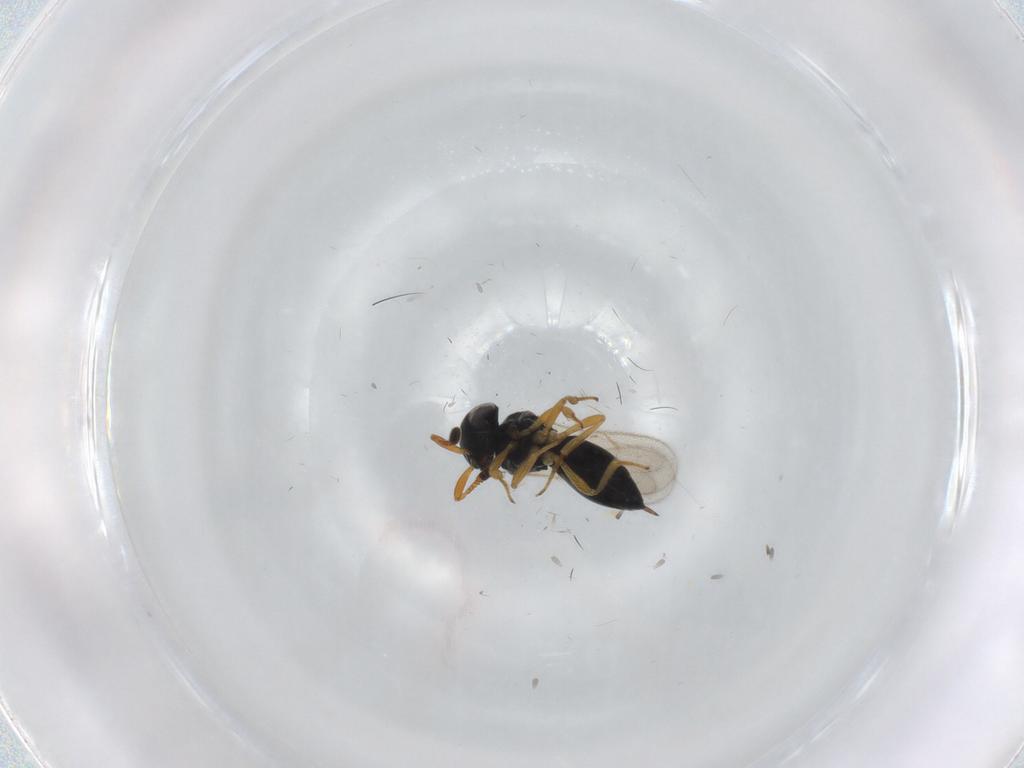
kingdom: Animalia
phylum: Arthropoda
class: Insecta
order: Hymenoptera
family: Scelionidae
